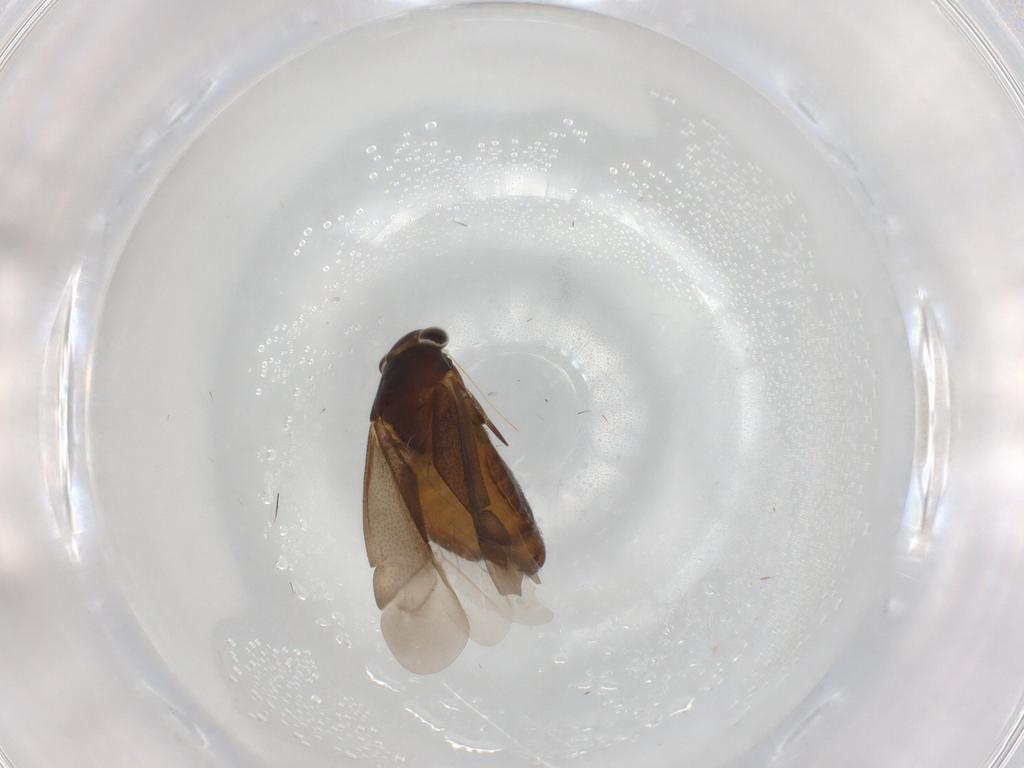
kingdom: Animalia
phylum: Arthropoda
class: Insecta
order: Hemiptera
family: Miridae
